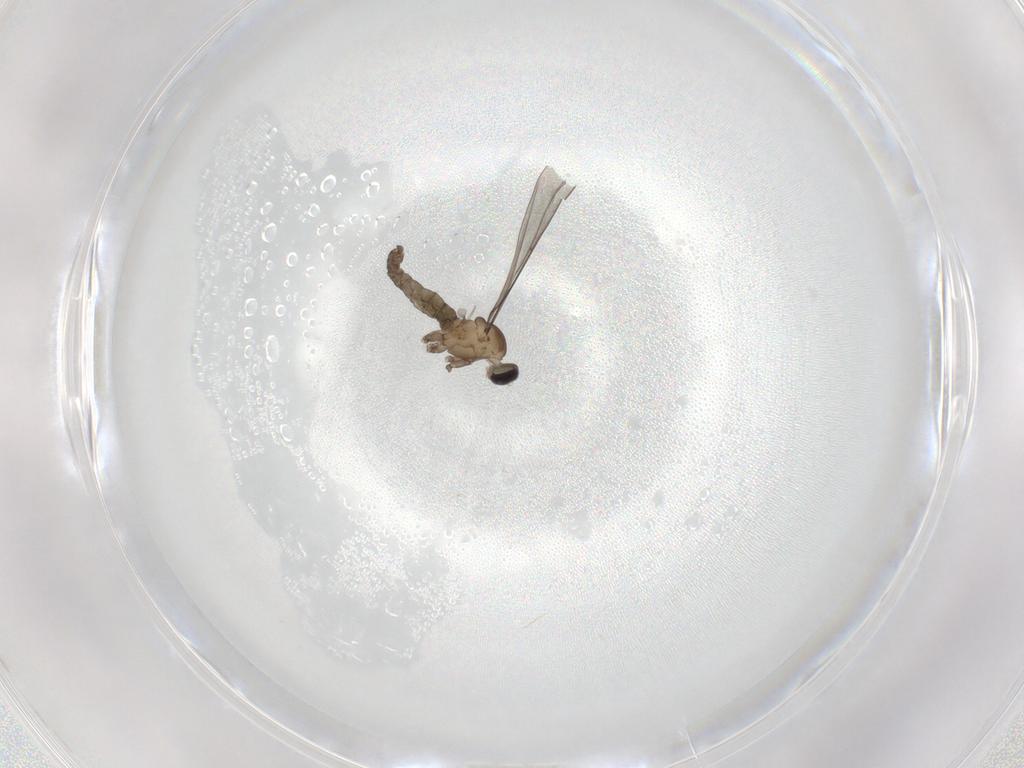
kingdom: Animalia
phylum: Arthropoda
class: Insecta
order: Diptera
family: Cecidomyiidae
